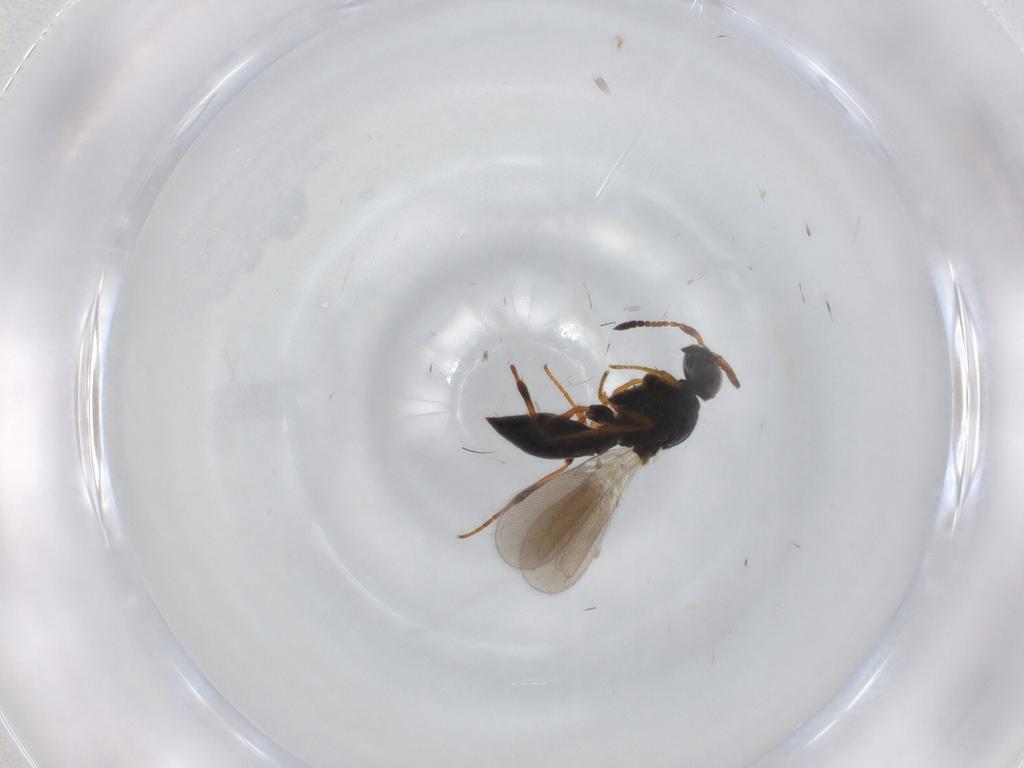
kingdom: Animalia
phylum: Arthropoda
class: Insecta
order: Hymenoptera
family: Platygastridae
